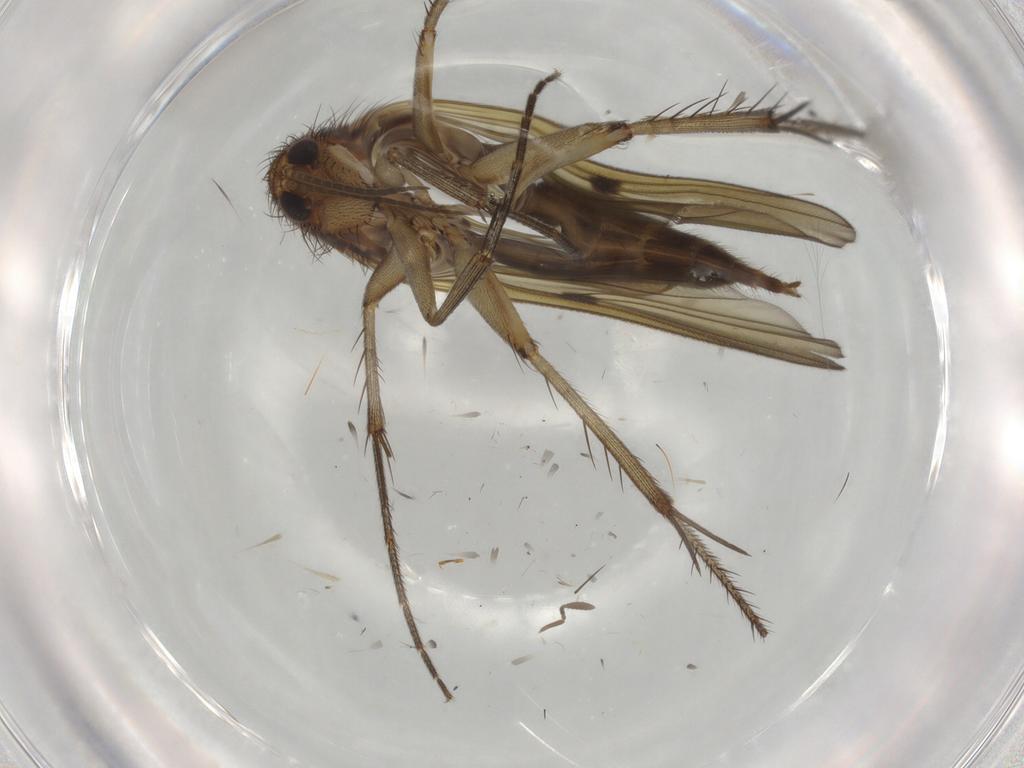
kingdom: Animalia
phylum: Arthropoda
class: Insecta
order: Diptera
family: Mycetophilidae
